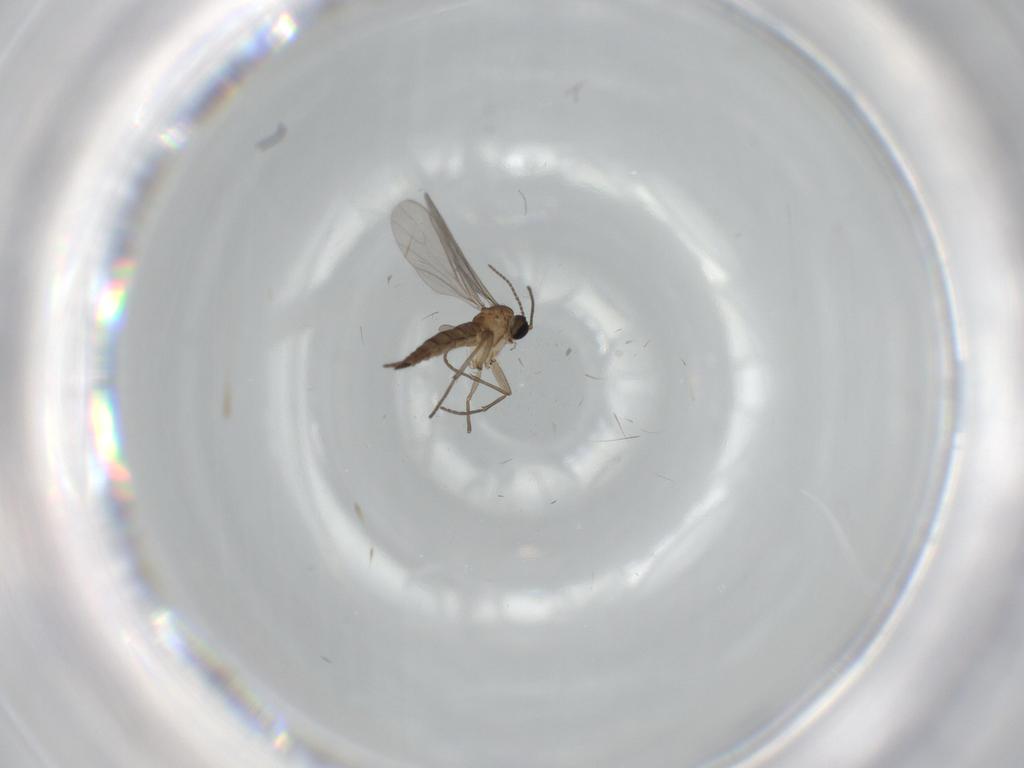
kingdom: Animalia
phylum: Arthropoda
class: Insecta
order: Diptera
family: Sciaridae
